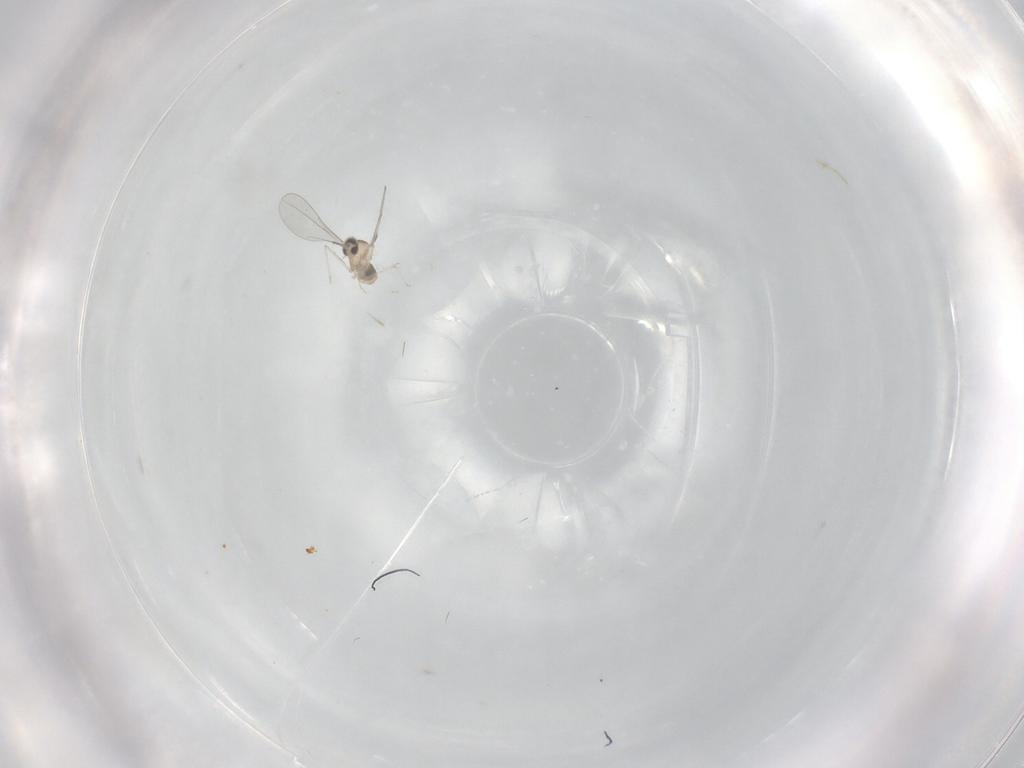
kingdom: Animalia
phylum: Arthropoda
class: Insecta
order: Diptera
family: Cecidomyiidae
